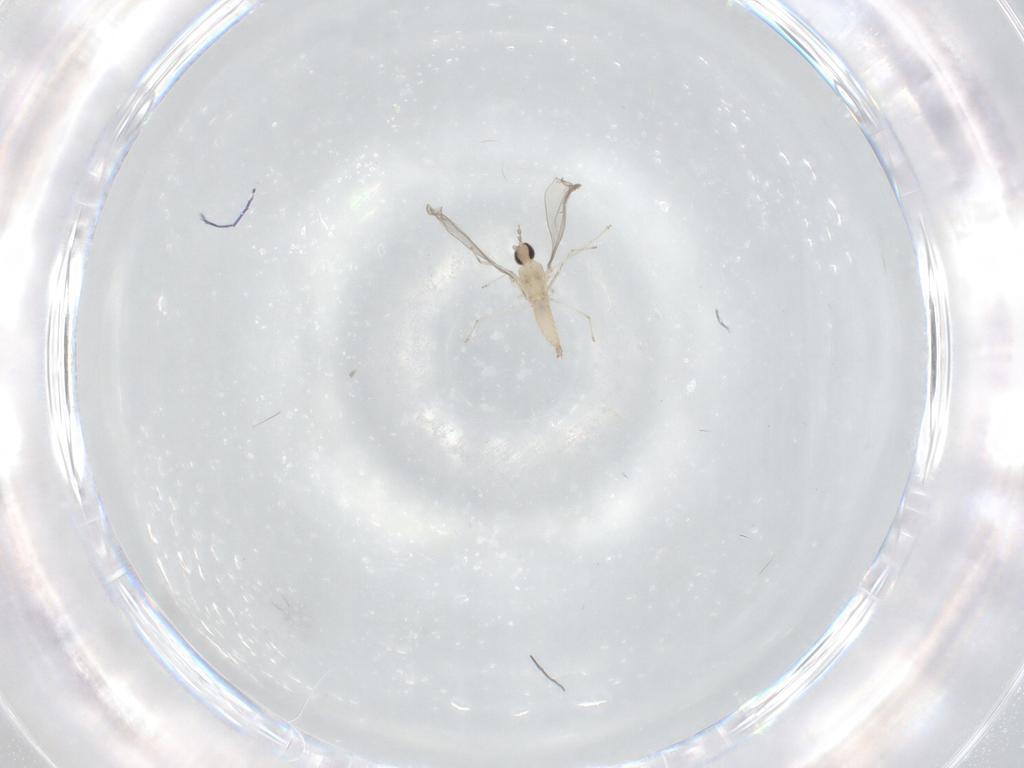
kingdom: Animalia
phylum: Arthropoda
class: Insecta
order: Diptera
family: Cecidomyiidae
